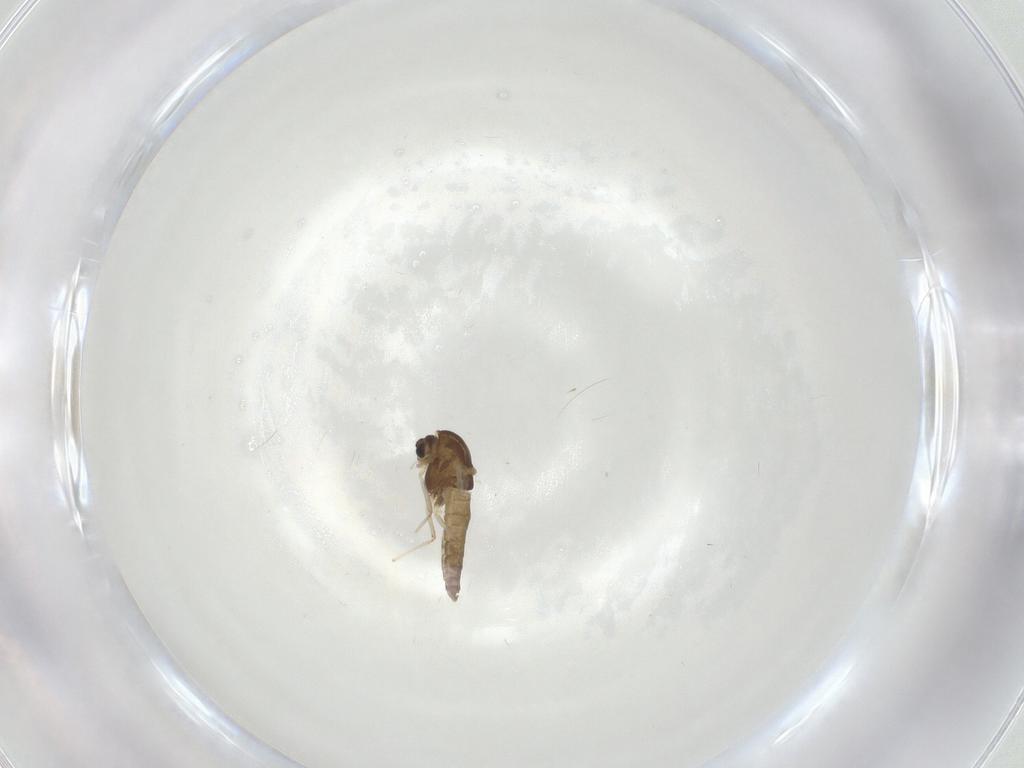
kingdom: Animalia
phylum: Arthropoda
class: Insecta
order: Diptera
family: Chironomidae
